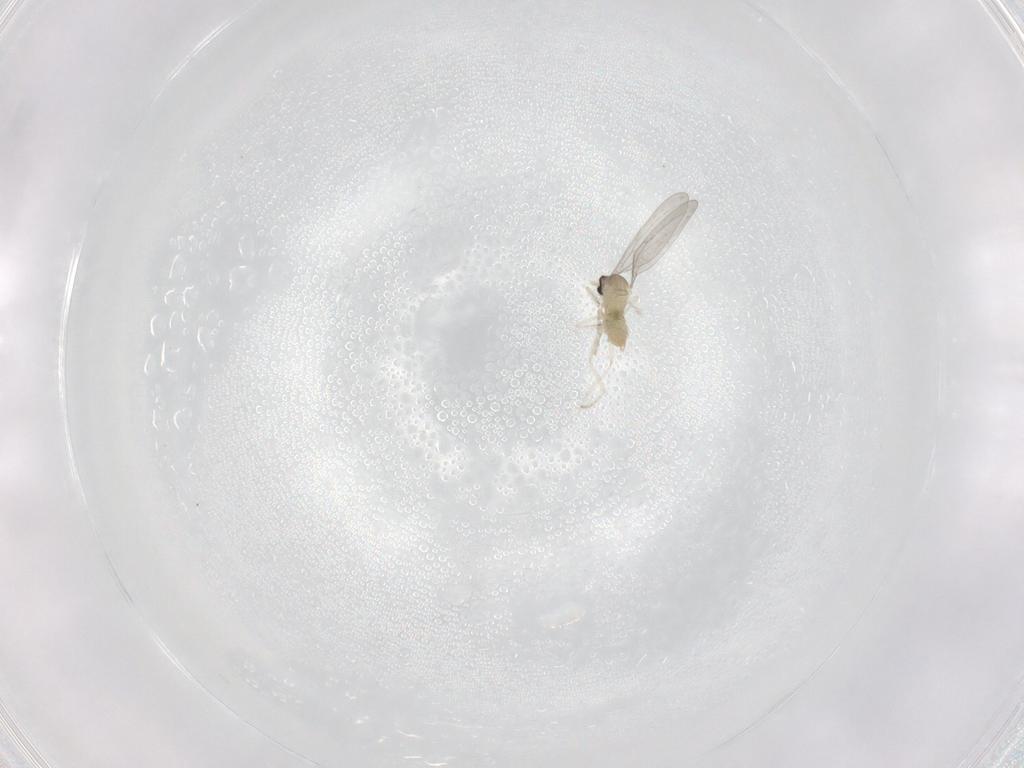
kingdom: Animalia
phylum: Arthropoda
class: Insecta
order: Diptera
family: Cecidomyiidae
